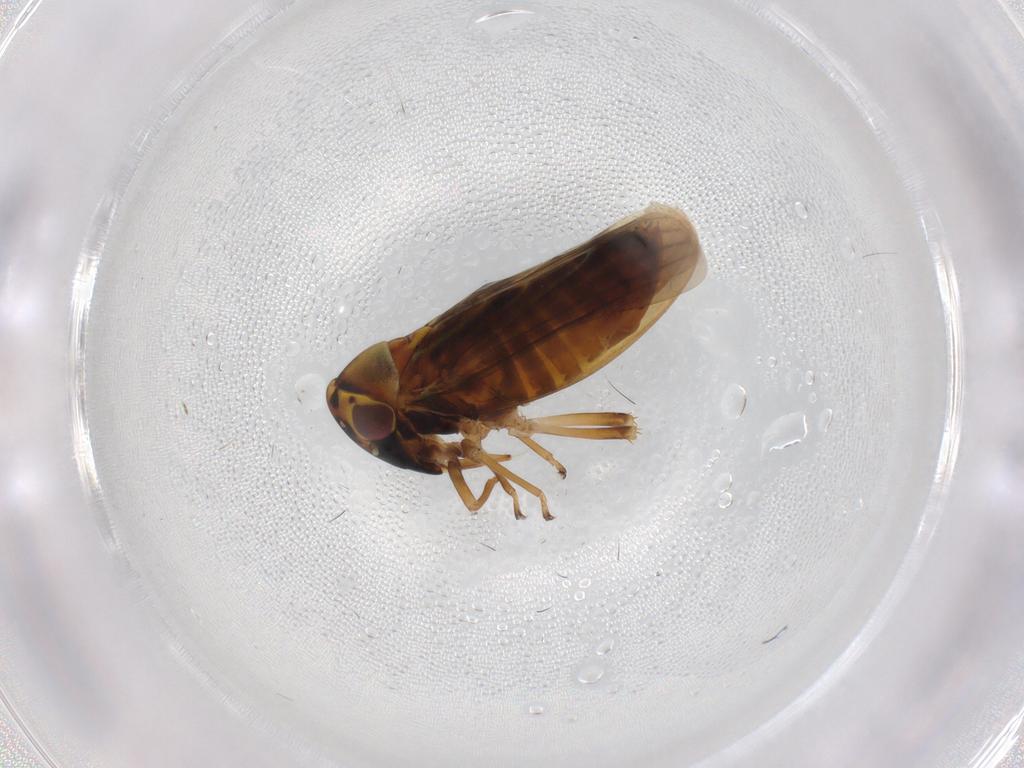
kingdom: Animalia
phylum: Arthropoda
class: Insecta
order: Hemiptera
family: Cicadellidae
